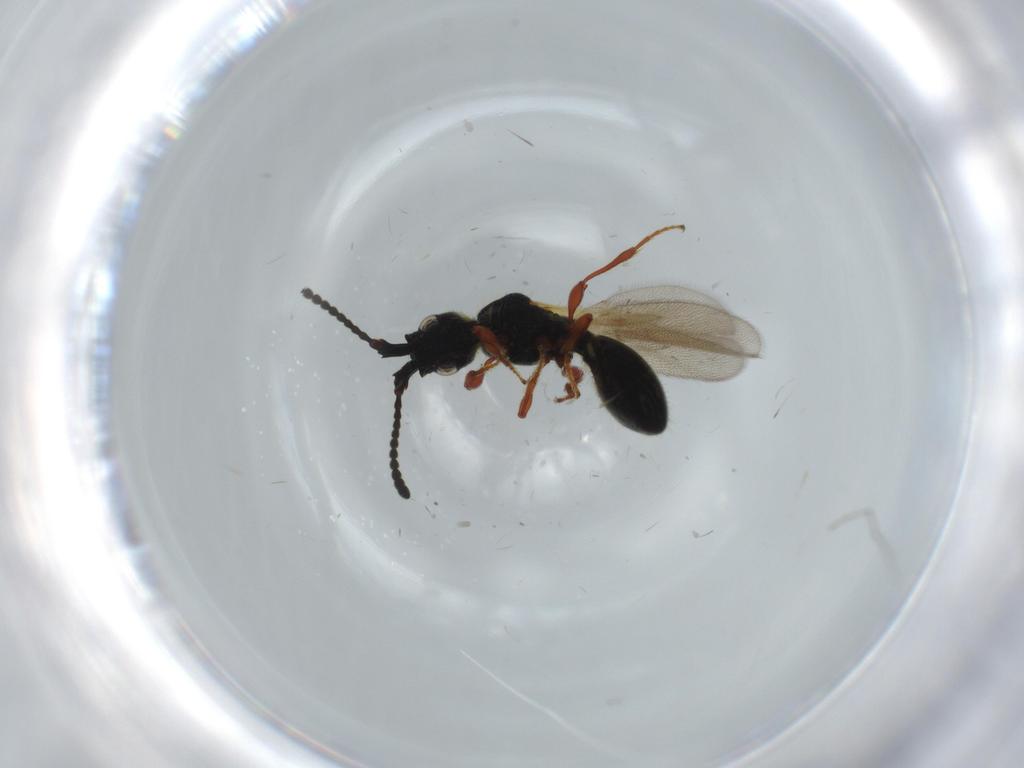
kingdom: Animalia
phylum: Arthropoda
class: Insecta
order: Hymenoptera
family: Diapriidae
